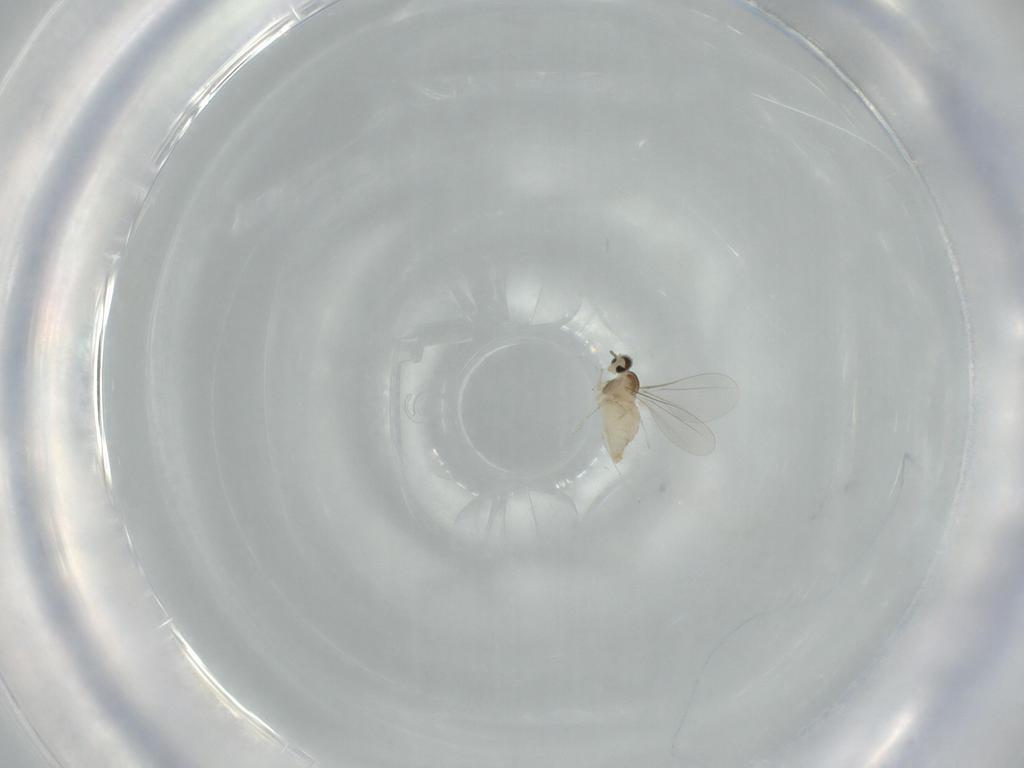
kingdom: Animalia
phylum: Arthropoda
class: Insecta
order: Diptera
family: Cecidomyiidae
